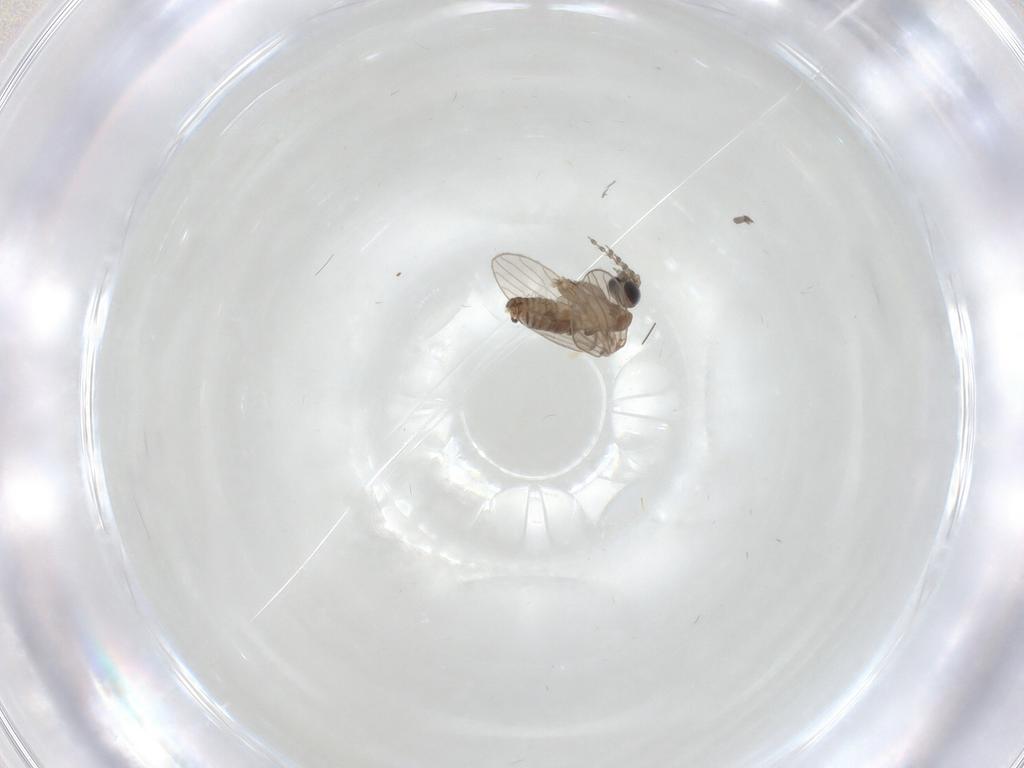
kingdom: Animalia
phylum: Arthropoda
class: Insecta
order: Diptera
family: Psychodidae
